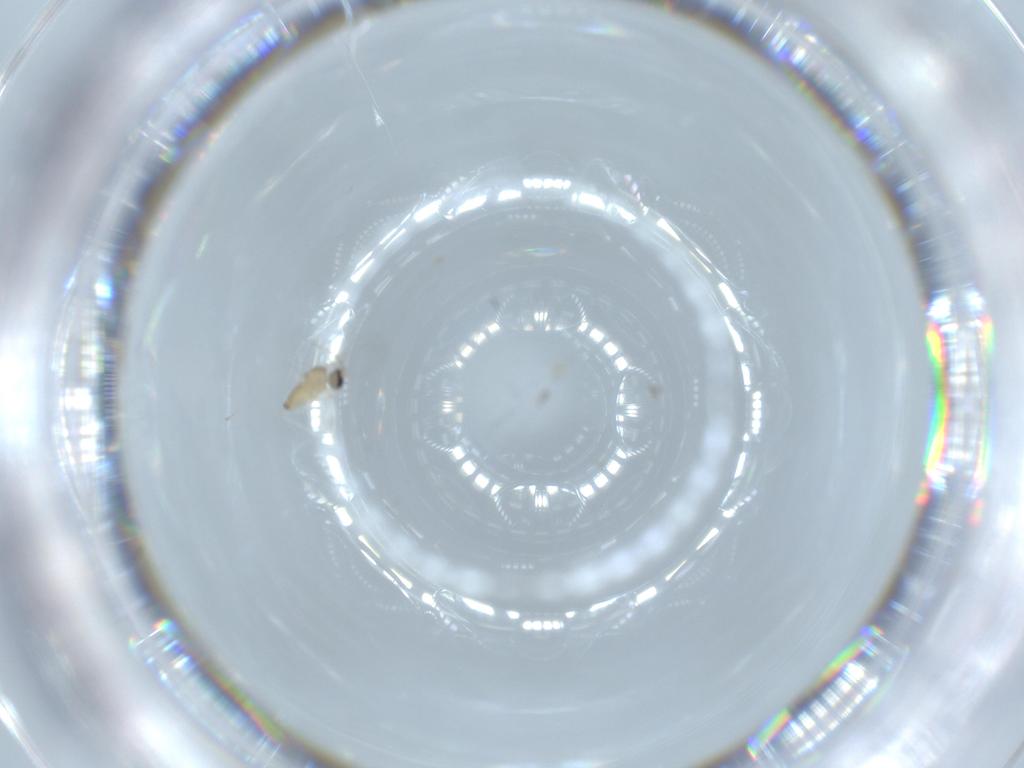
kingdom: Animalia
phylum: Arthropoda
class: Insecta
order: Diptera
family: Cecidomyiidae
